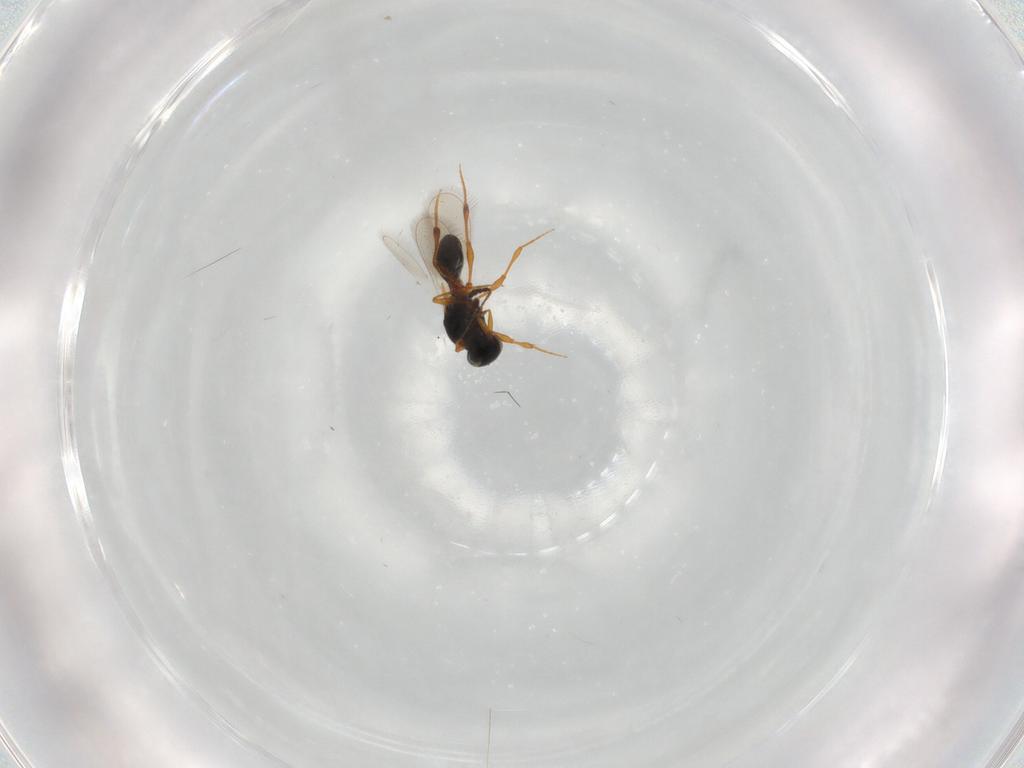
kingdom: Animalia
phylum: Arthropoda
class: Insecta
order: Hymenoptera
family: Platygastridae
